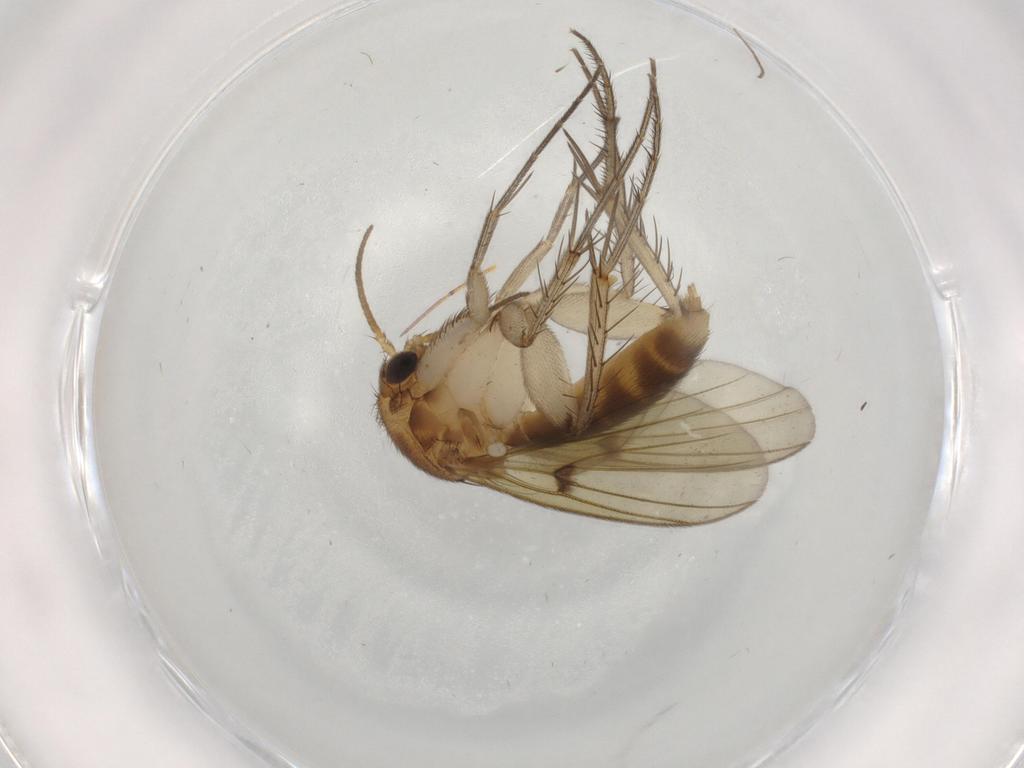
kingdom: Animalia
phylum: Arthropoda
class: Insecta
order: Diptera
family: Mycetophilidae
